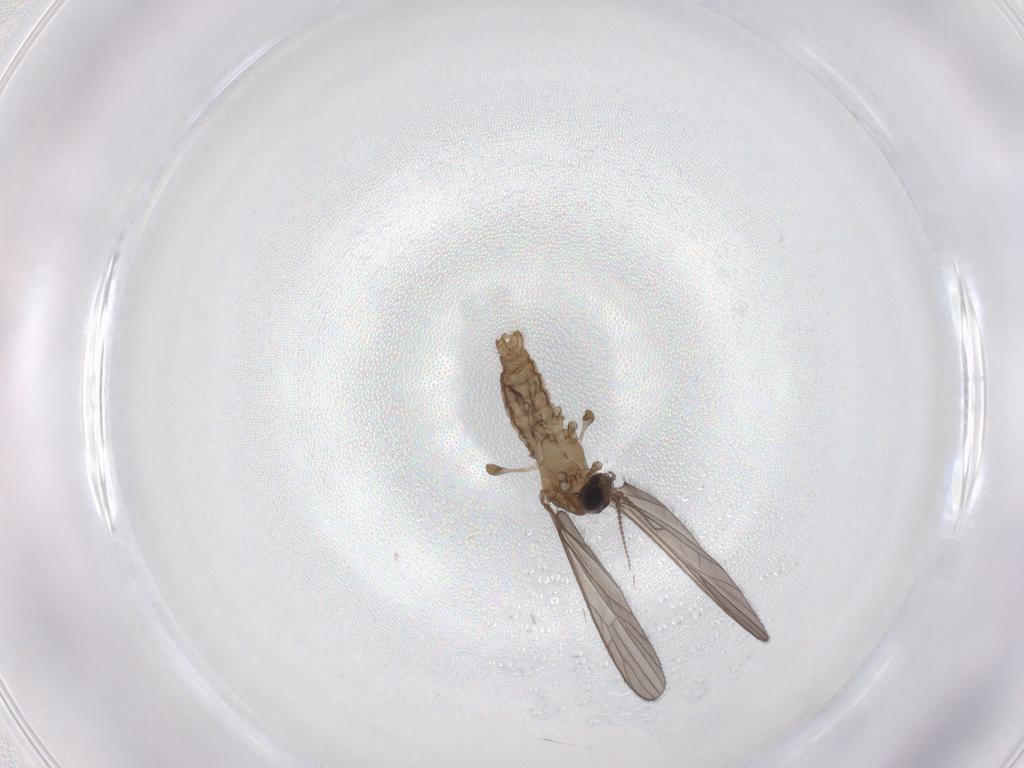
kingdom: Animalia
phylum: Arthropoda
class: Insecta
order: Diptera
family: Limoniidae
